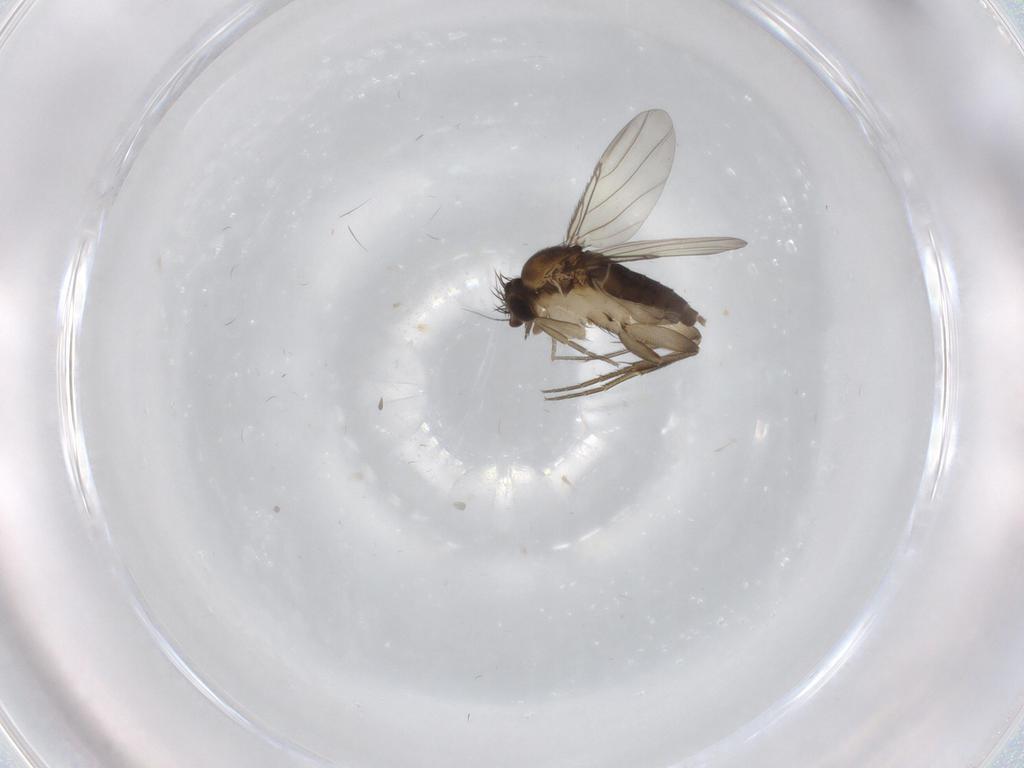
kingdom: Animalia
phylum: Arthropoda
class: Insecta
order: Diptera
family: Phoridae
